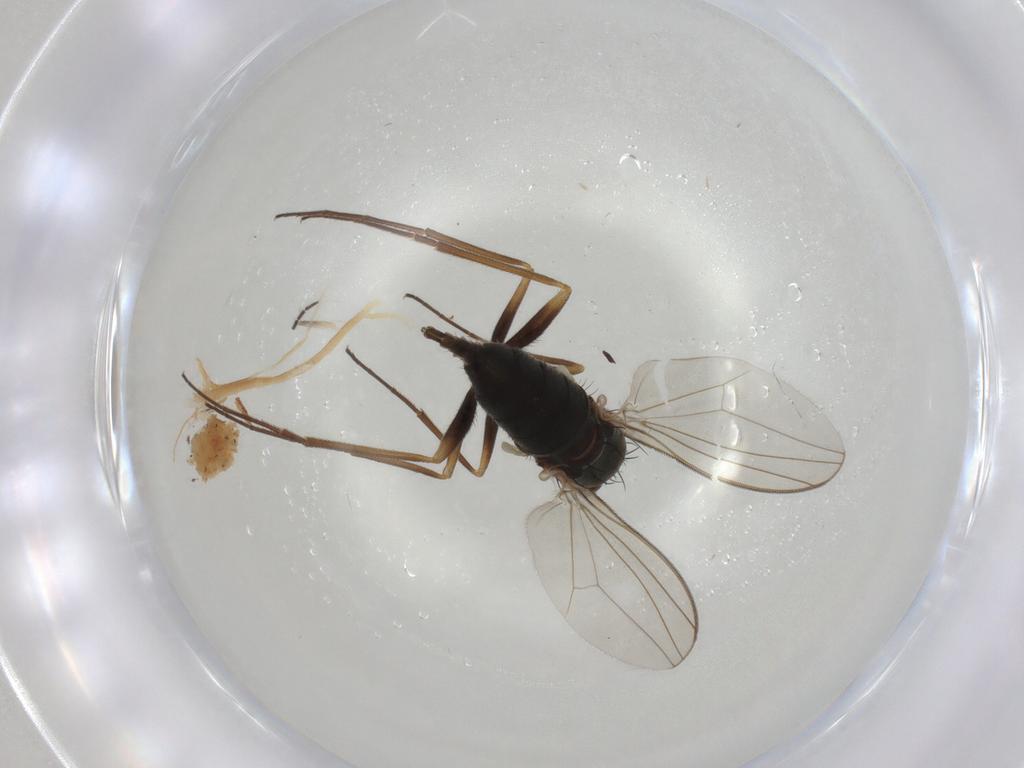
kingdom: Animalia
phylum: Arthropoda
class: Insecta
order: Diptera
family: Dolichopodidae
